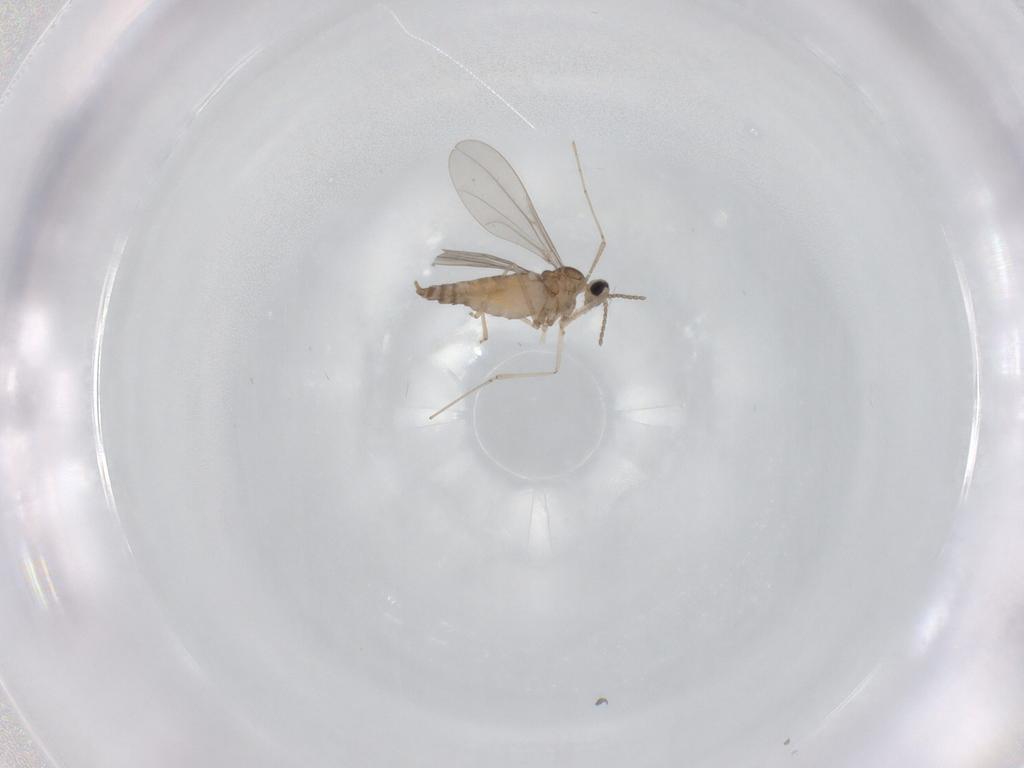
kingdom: Animalia
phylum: Arthropoda
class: Insecta
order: Diptera
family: Cecidomyiidae
